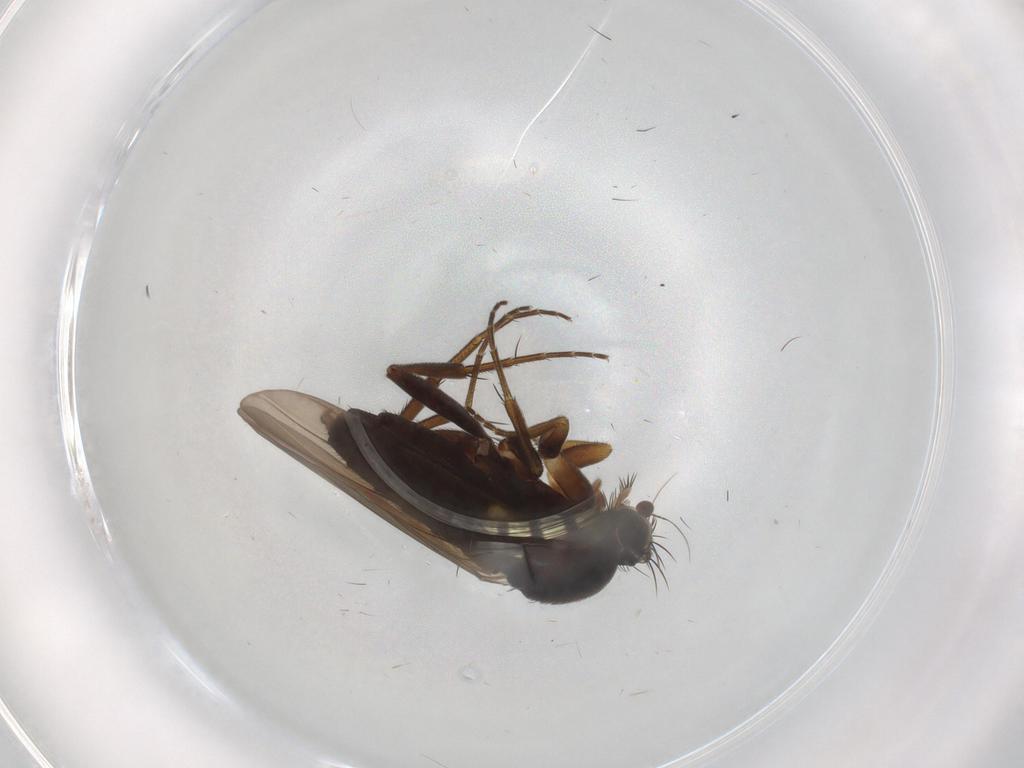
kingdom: Animalia
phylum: Arthropoda
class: Insecta
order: Diptera
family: Phoridae
